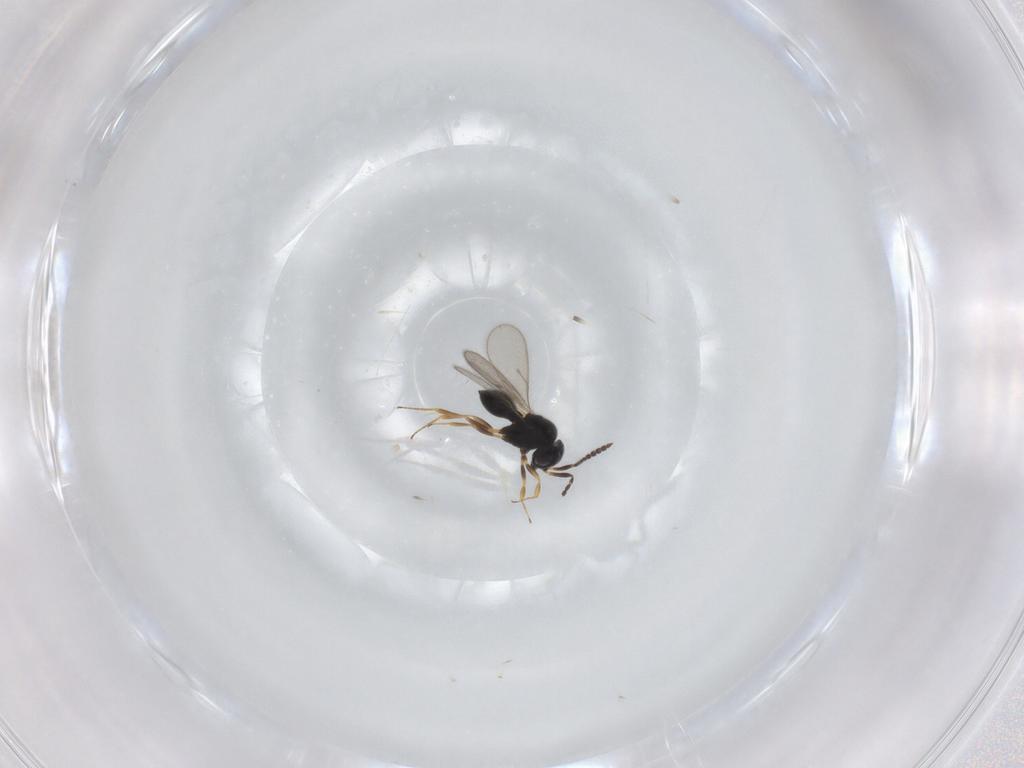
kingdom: Animalia
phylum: Arthropoda
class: Insecta
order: Hymenoptera
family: Scelionidae
